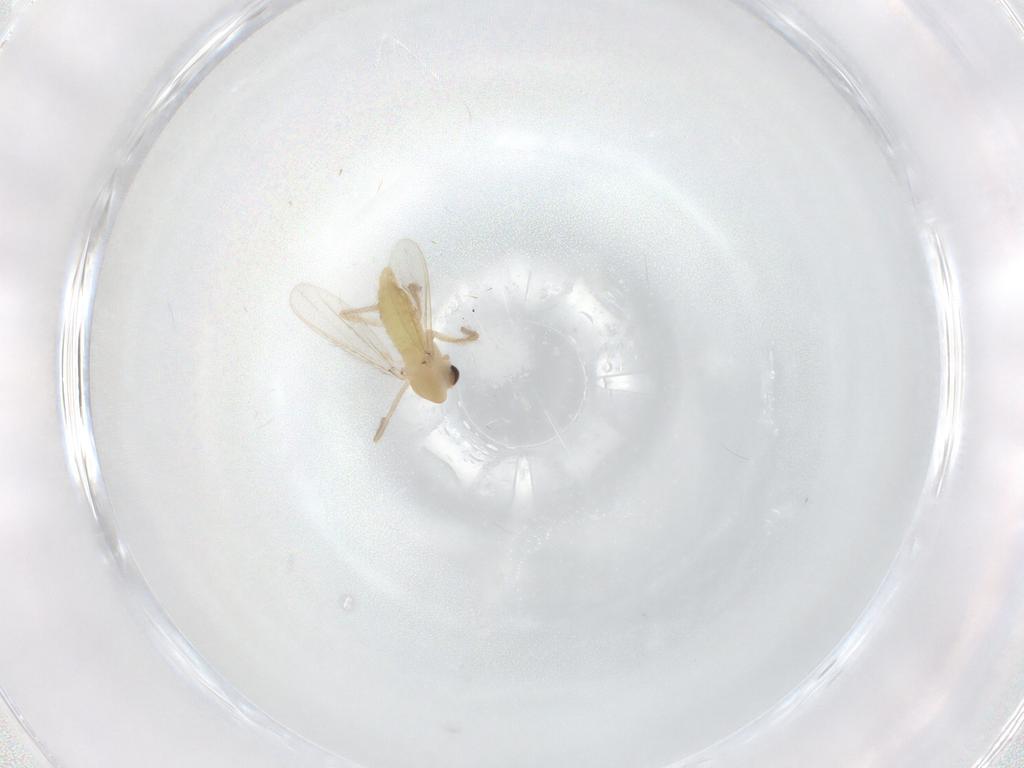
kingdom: Animalia
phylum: Arthropoda
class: Insecta
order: Diptera
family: Chironomidae
